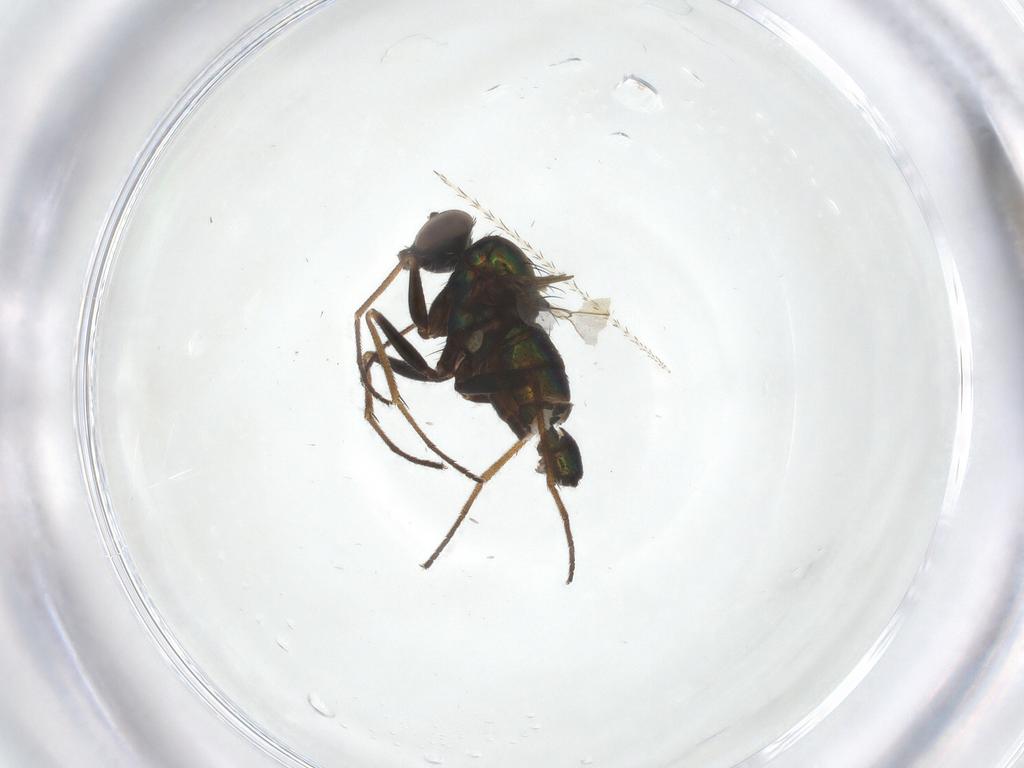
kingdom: Animalia
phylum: Arthropoda
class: Insecta
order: Diptera
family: Dolichopodidae
